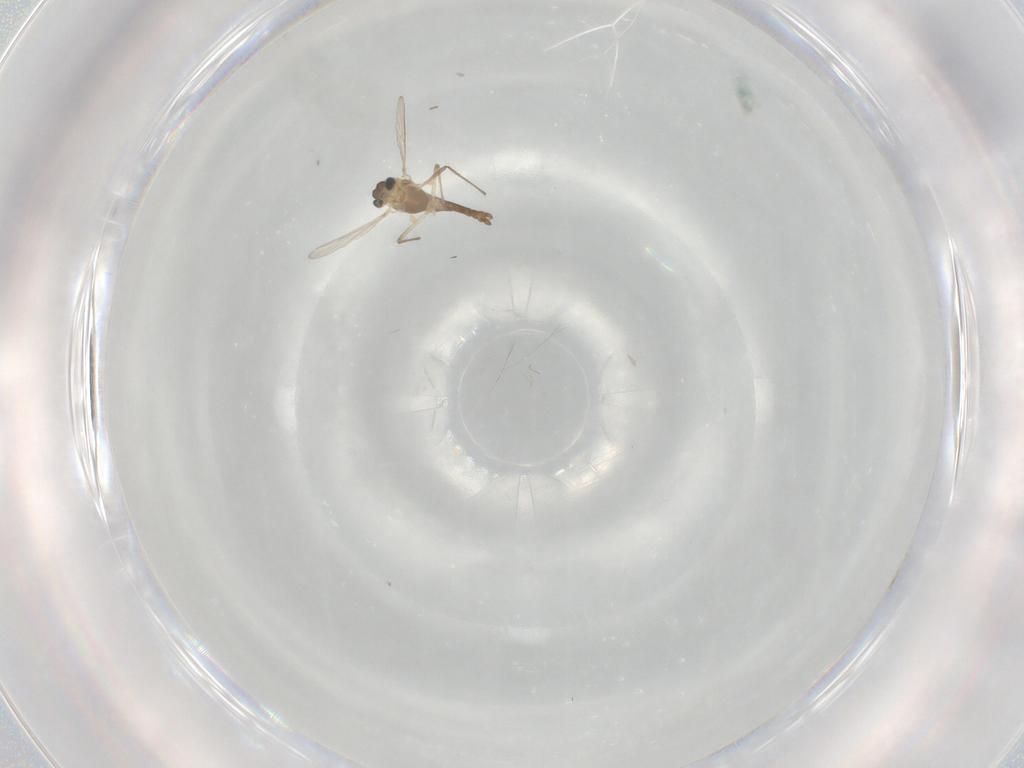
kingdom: Animalia
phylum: Arthropoda
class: Insecta
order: Diptera
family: Chironomidae
